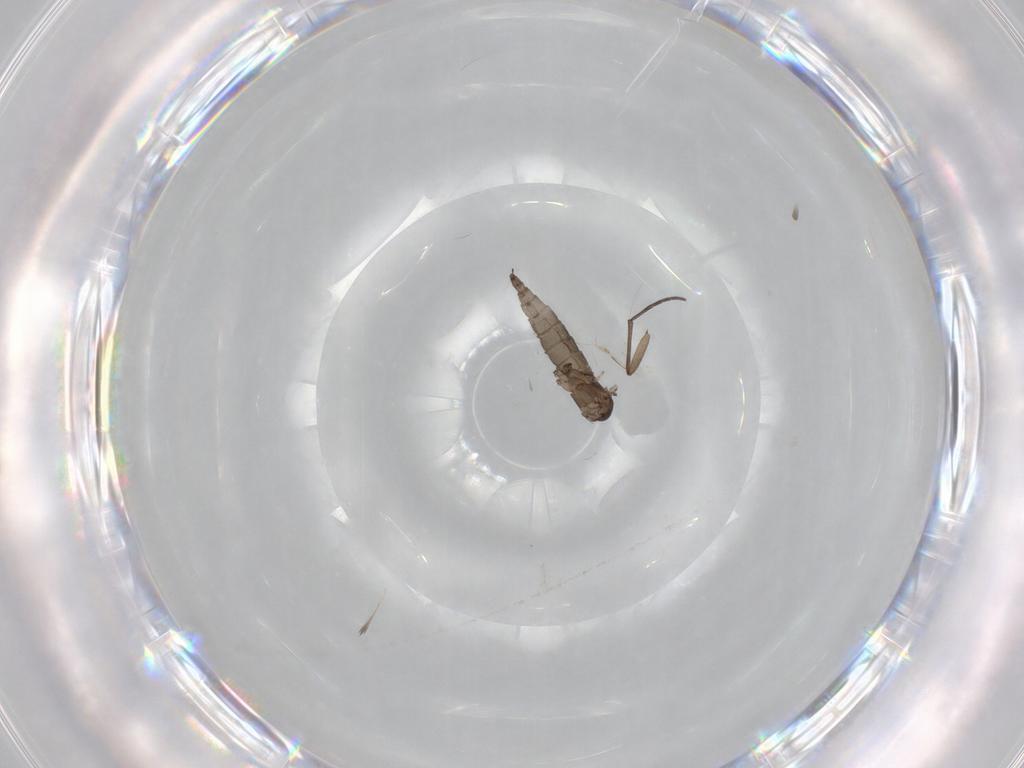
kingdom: Animalia
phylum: Arthropoda
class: Insecta
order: Diptera
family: Sciaridae
